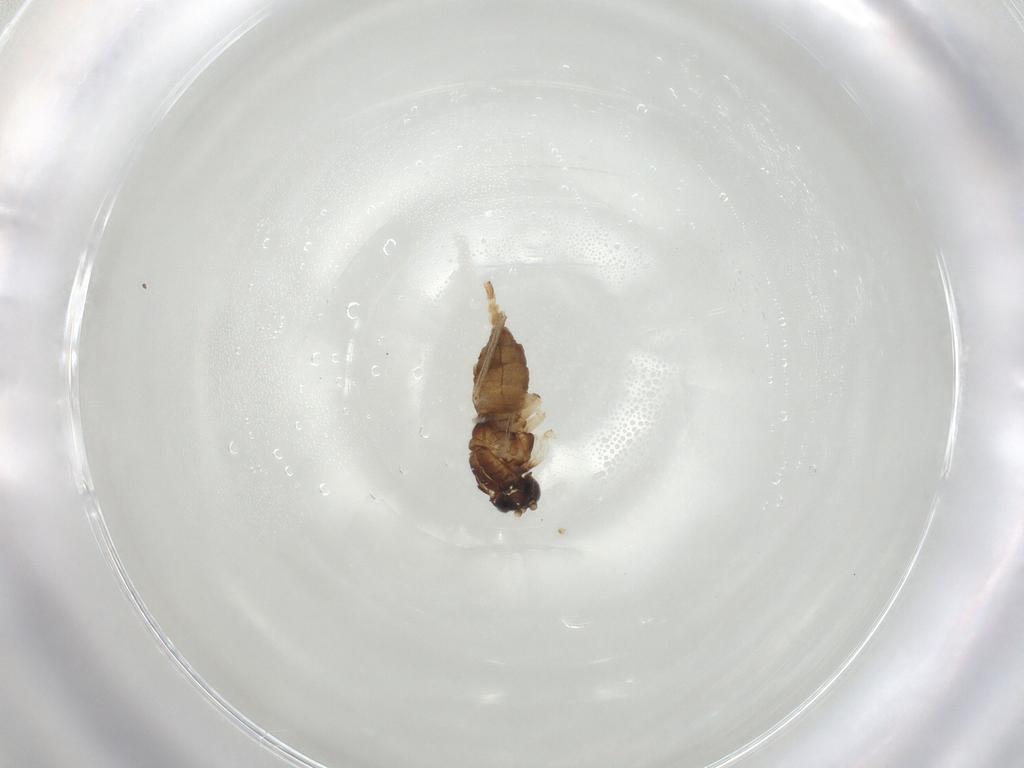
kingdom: Animalia
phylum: Arthropoda
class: Insecta
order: Diptera
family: Sciaridae
